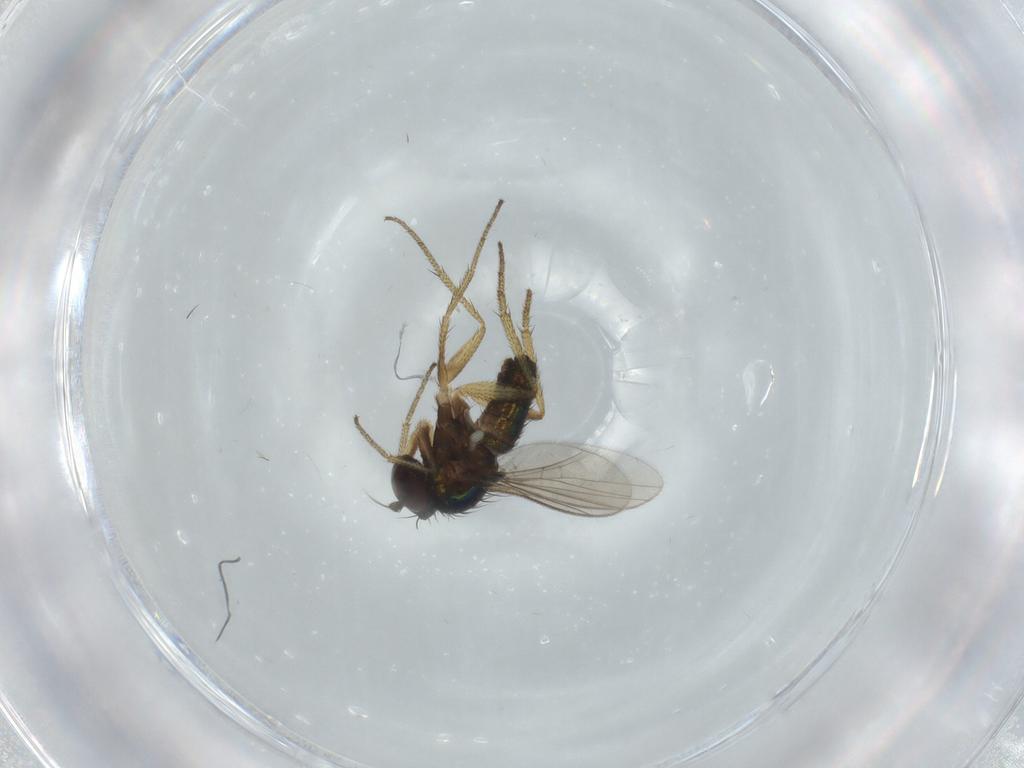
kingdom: Animalia
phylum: Arthropoda
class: Insecta
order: Diptera
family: Dolichopodidae
